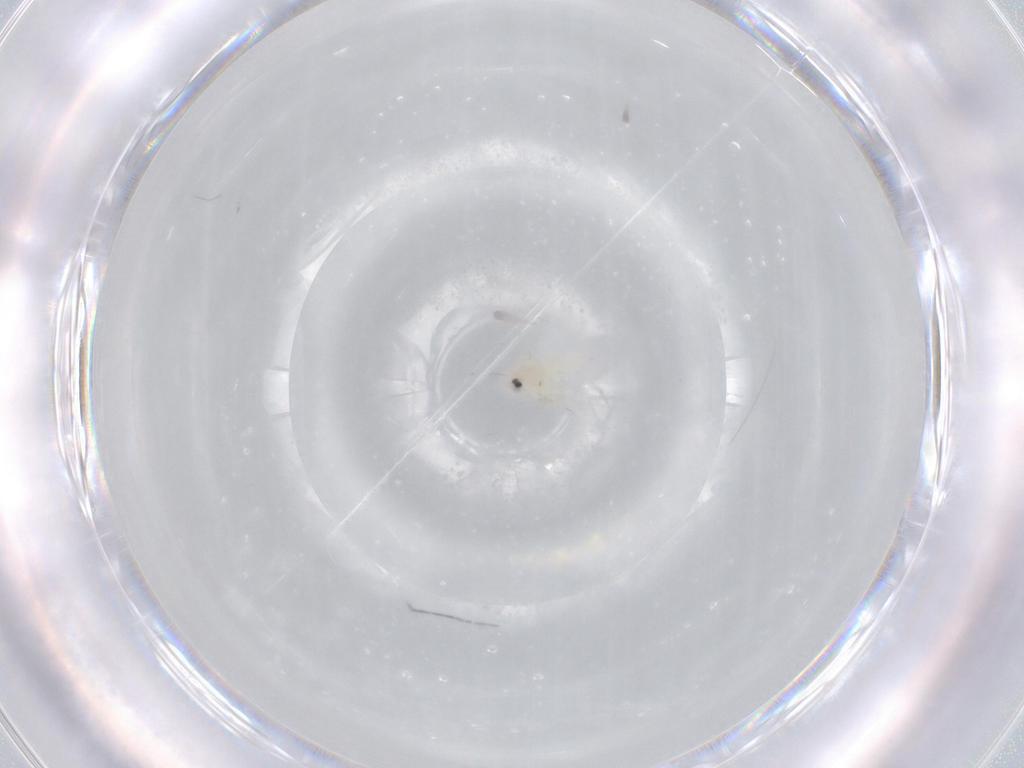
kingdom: Animalia
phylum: Arthropoda
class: Insecta
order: Hemiptera
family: Aleyrodidae
